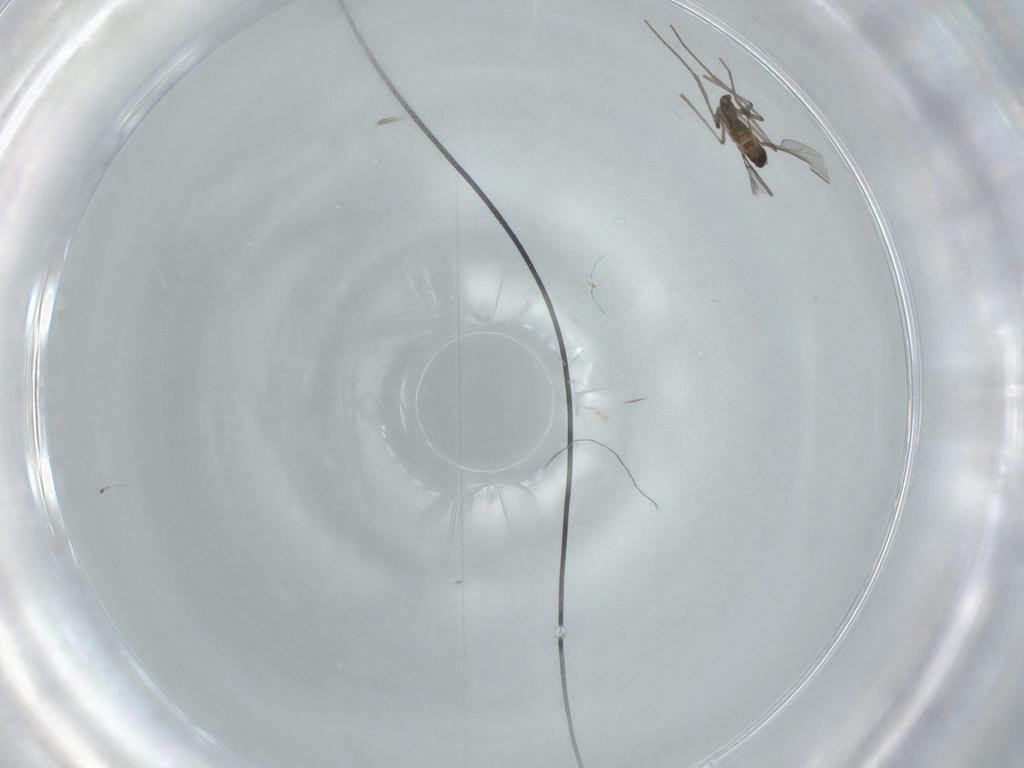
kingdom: Animalia
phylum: Arthropoda
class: Insecta
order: Diptera
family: Cecidomyiidae
